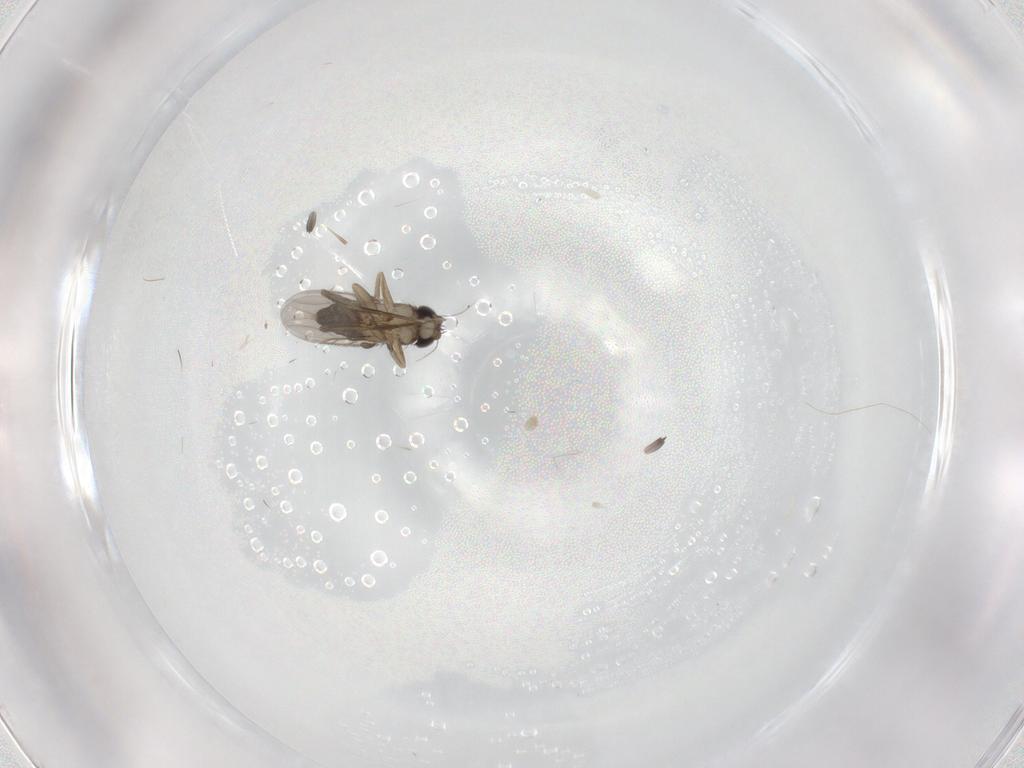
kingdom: Animalia
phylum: Arthropoda
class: Insecta
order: Diptera
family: Phoridae
